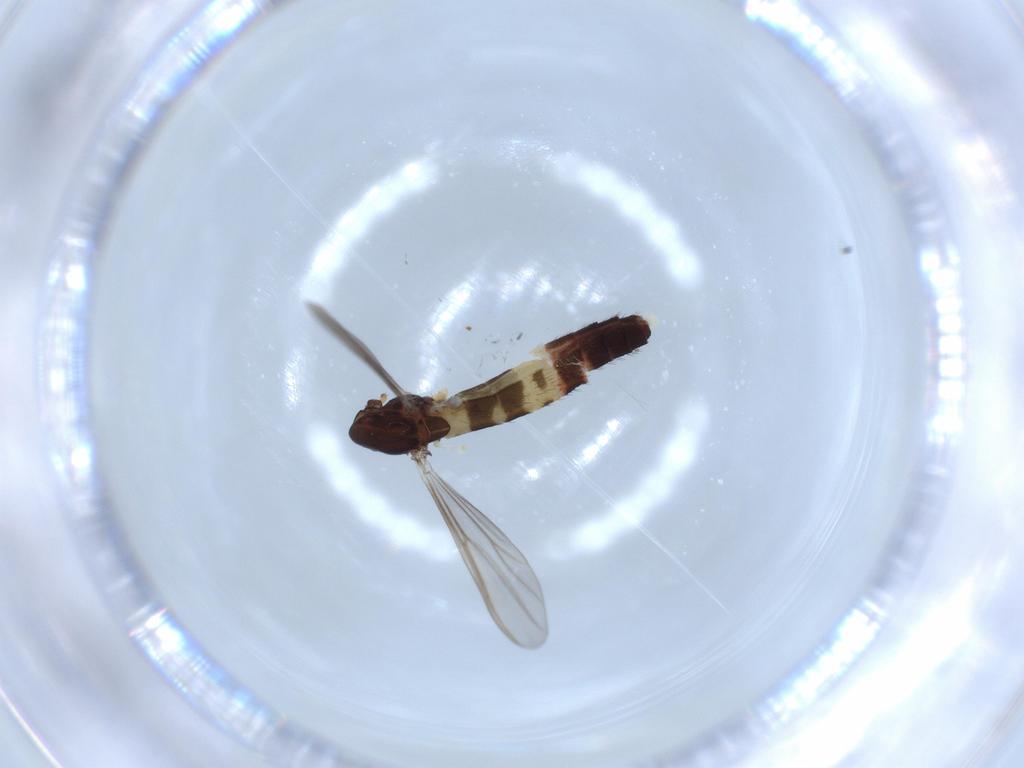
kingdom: Animalia
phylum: Arthropoda
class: Insecta
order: Diptera
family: Chironomidae
